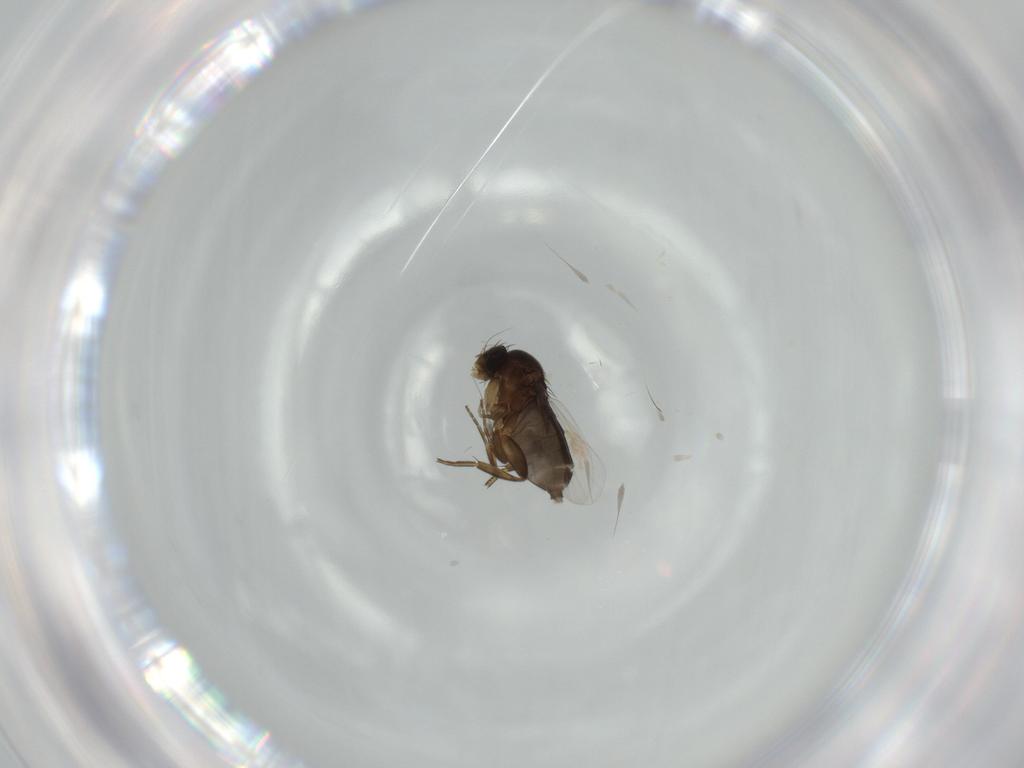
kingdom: Animalia
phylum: Arthropoda
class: Insecta
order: Diptera
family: Phoridae
